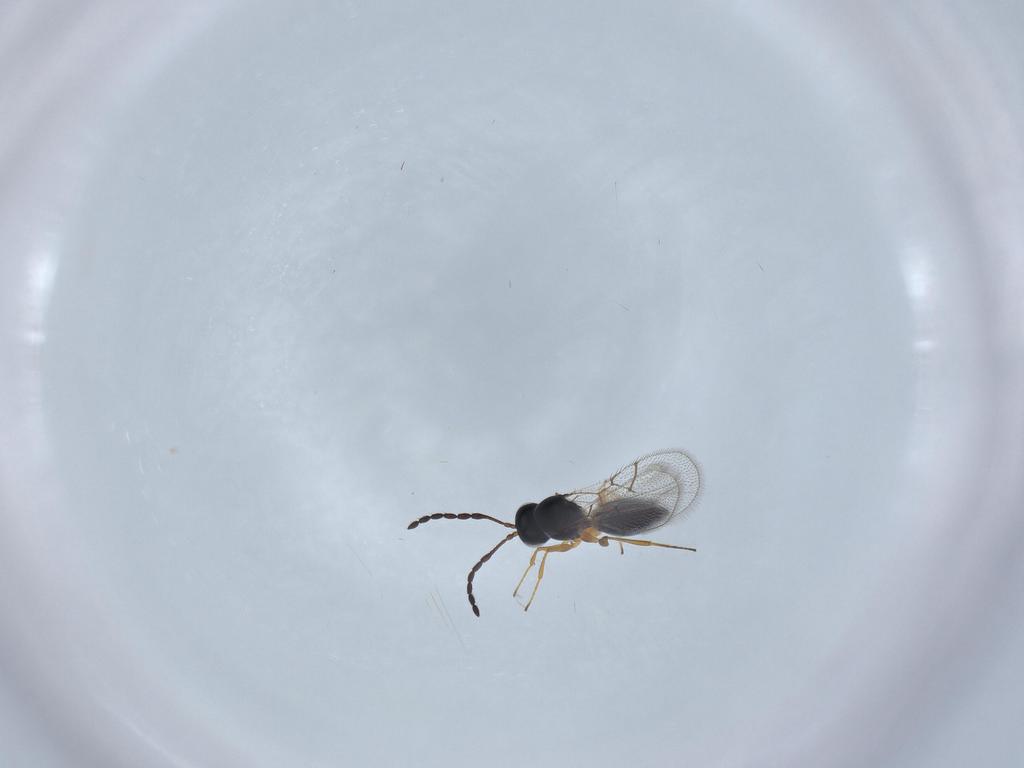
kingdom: Animalia
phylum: Arthropoda
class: Insecta
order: Hymenoptera
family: Figitidae
